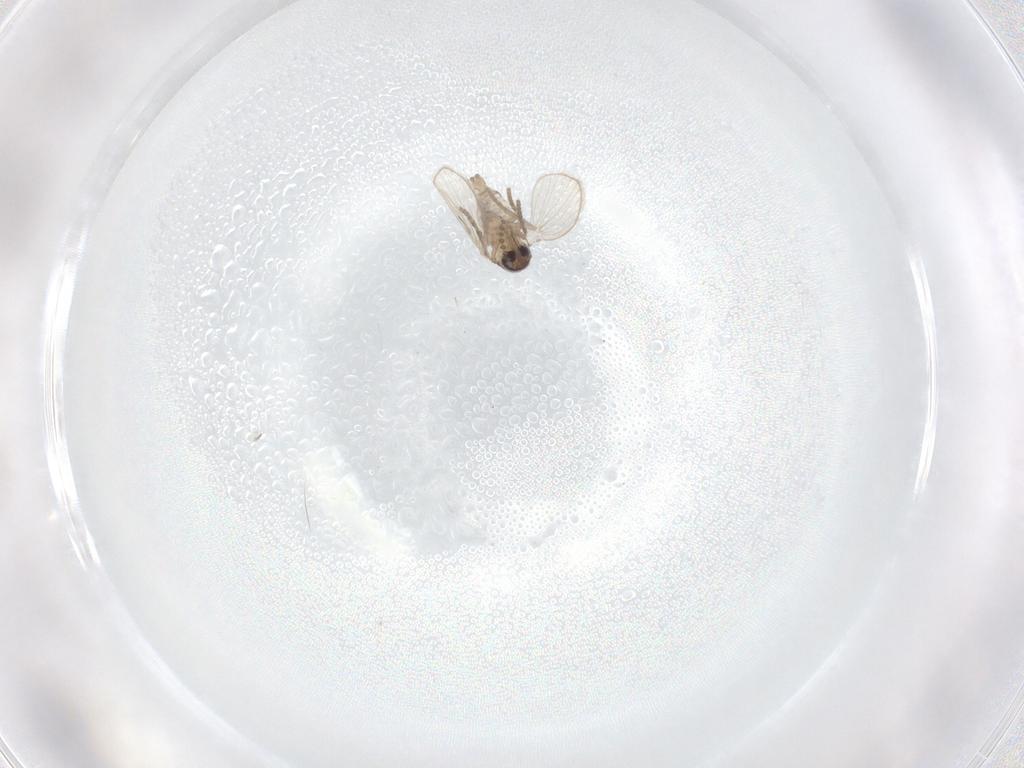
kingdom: Animalia
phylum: Arthropoda
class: Insecta
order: Diptera
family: Psychodidae
